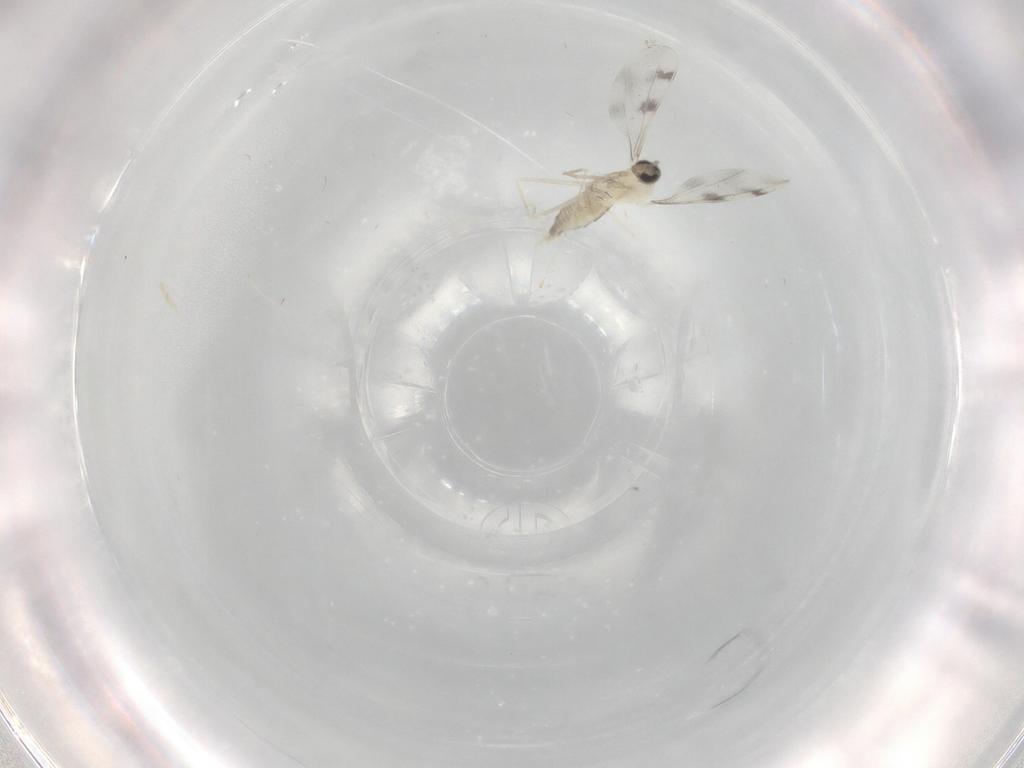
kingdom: Animalia
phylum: Arthropoda
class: Insecta
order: Diptera
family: Cecidomyiidae
